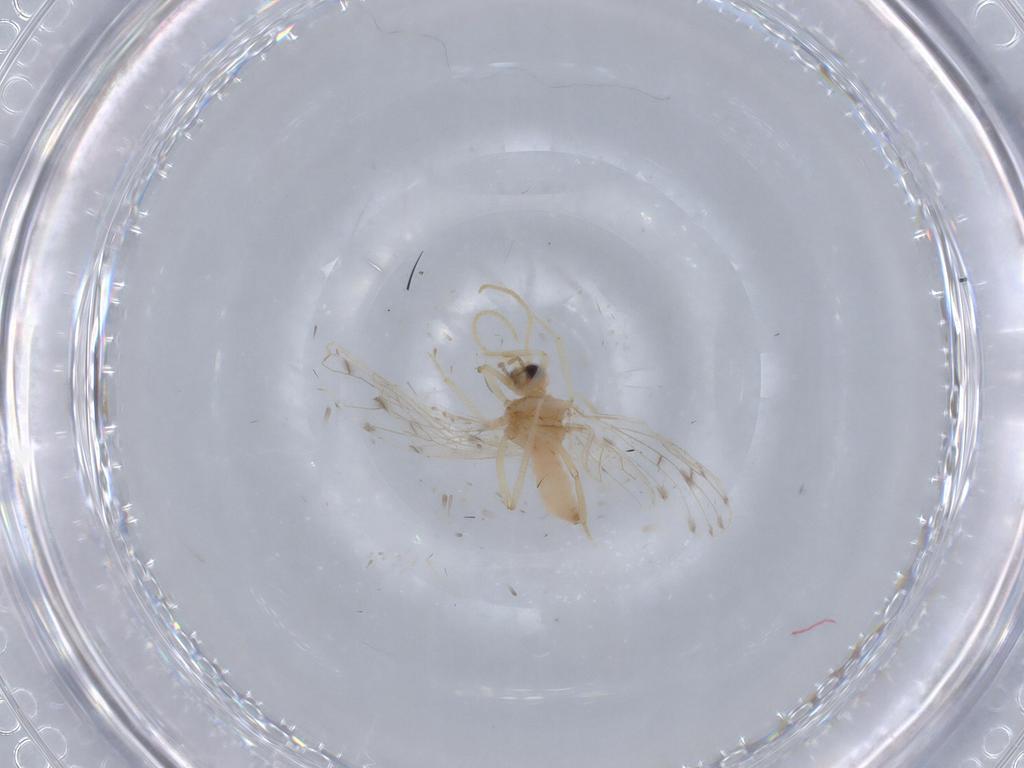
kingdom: Animalia
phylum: Arthropoda
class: Insecta
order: Neuroptera
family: Coniopterygidae
